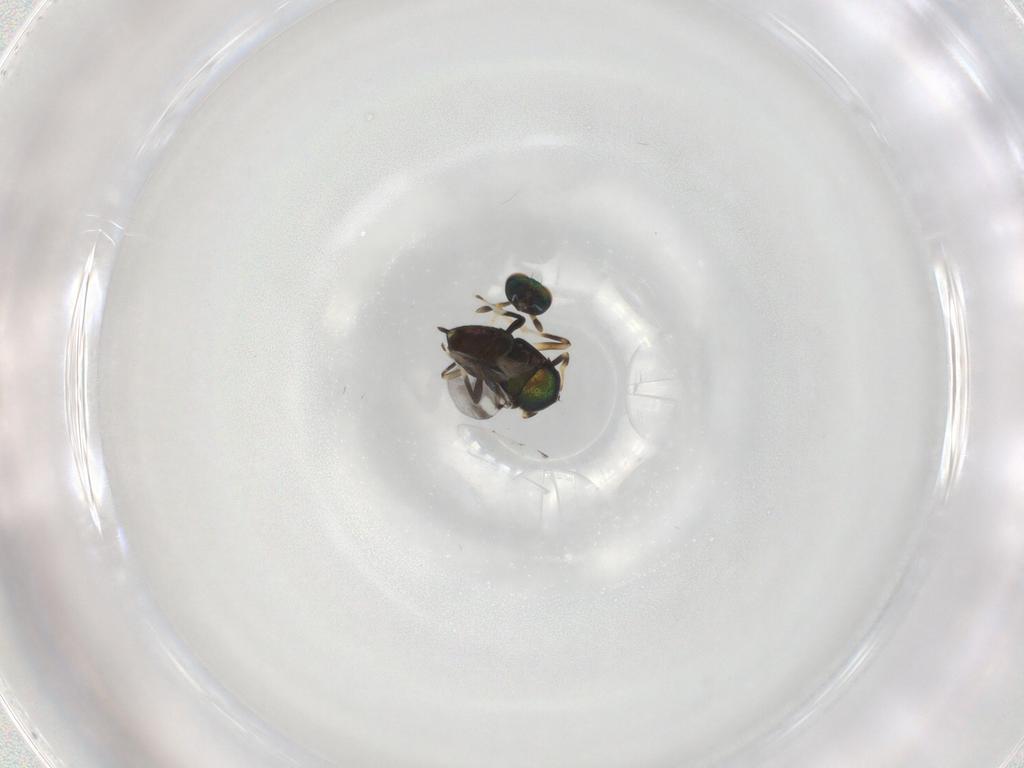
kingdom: Animalia
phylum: Arthropoda
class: Insecta
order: Hymenoptera
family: Encyrtidae
